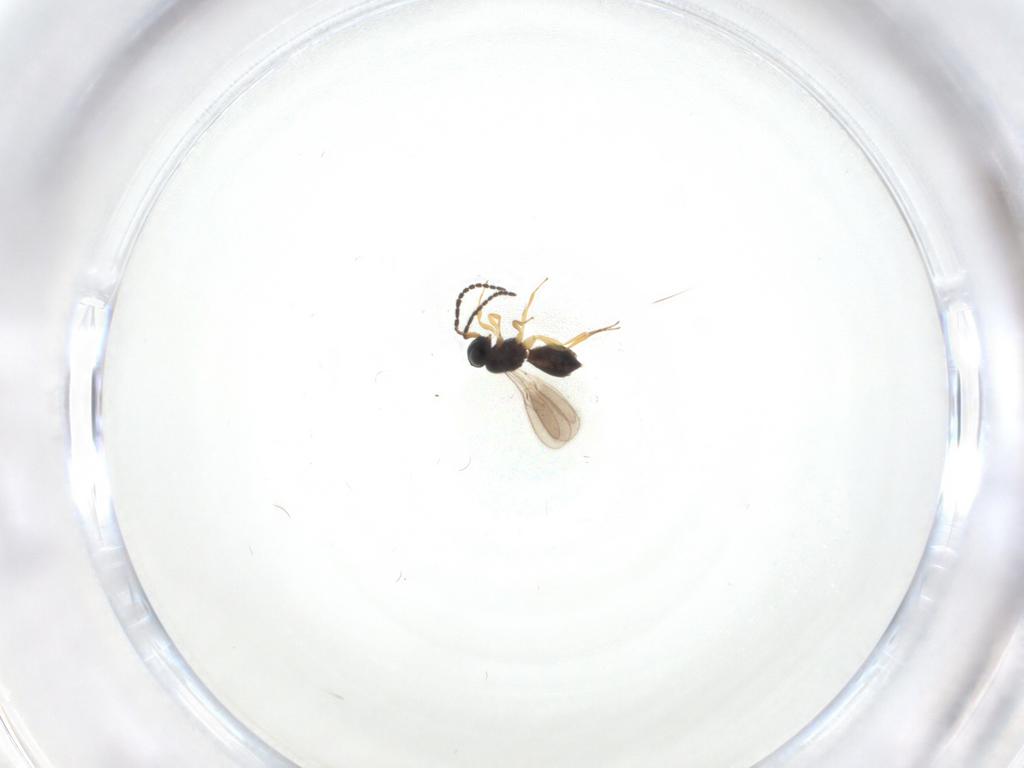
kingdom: Animalia
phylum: Arthropoda
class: Insecta
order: Hymenoptera
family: Scelionidae
